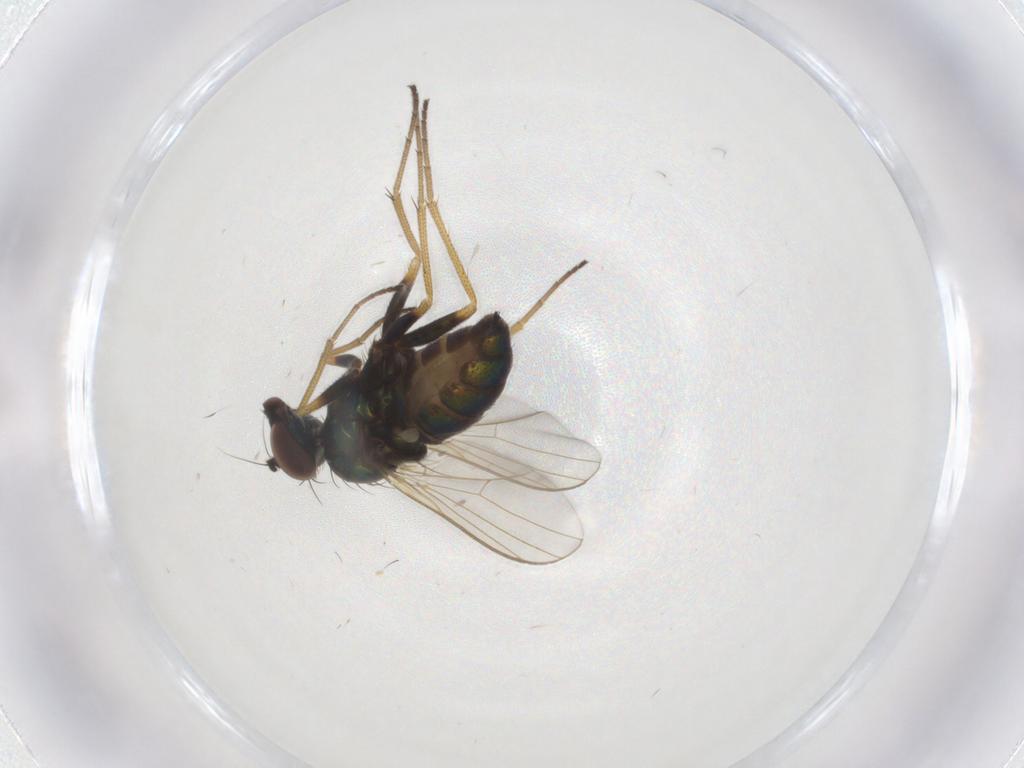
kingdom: Animalia
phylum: Arthropoda
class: Insecta
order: Diptera
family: Dolichopodidae
